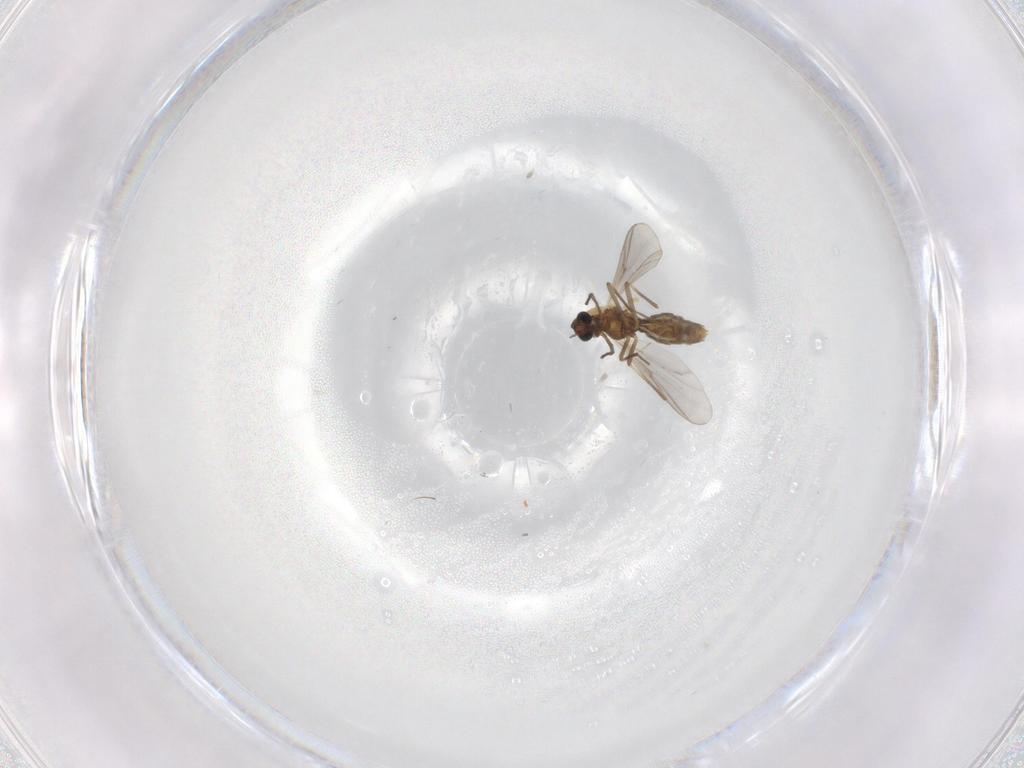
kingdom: Animalia
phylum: Arthropoda
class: Insecta
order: Diptera
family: Chironomidae
